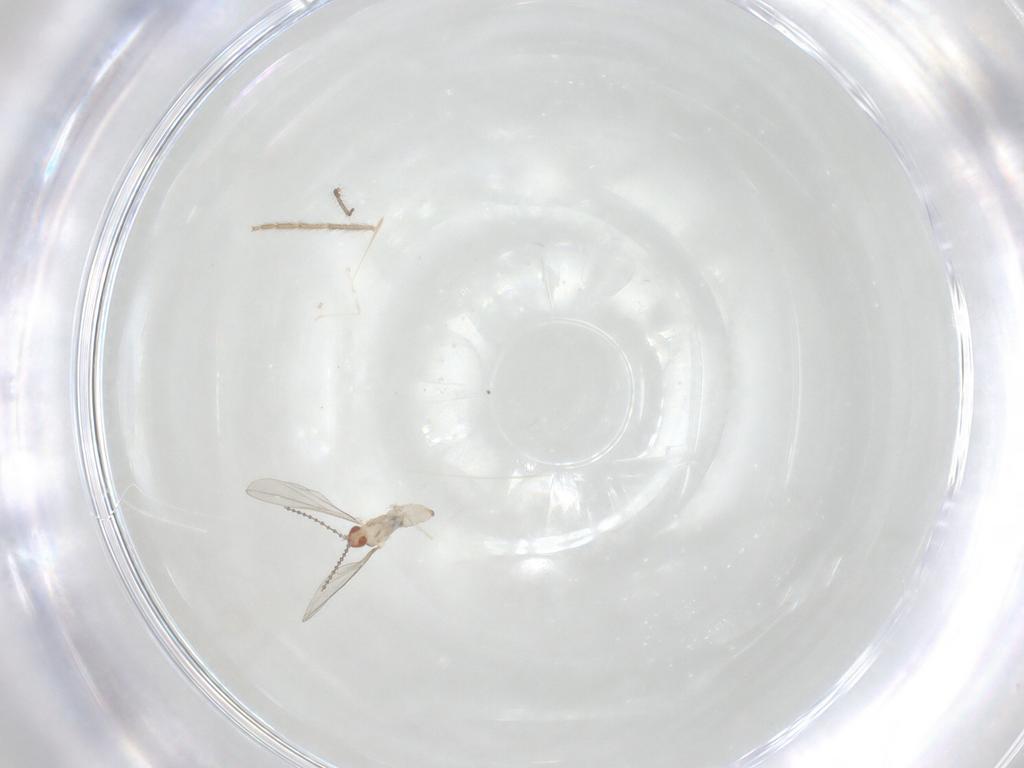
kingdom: Animalia
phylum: Arthropoda
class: Insecta
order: Diptera
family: Cecidomyiidae
